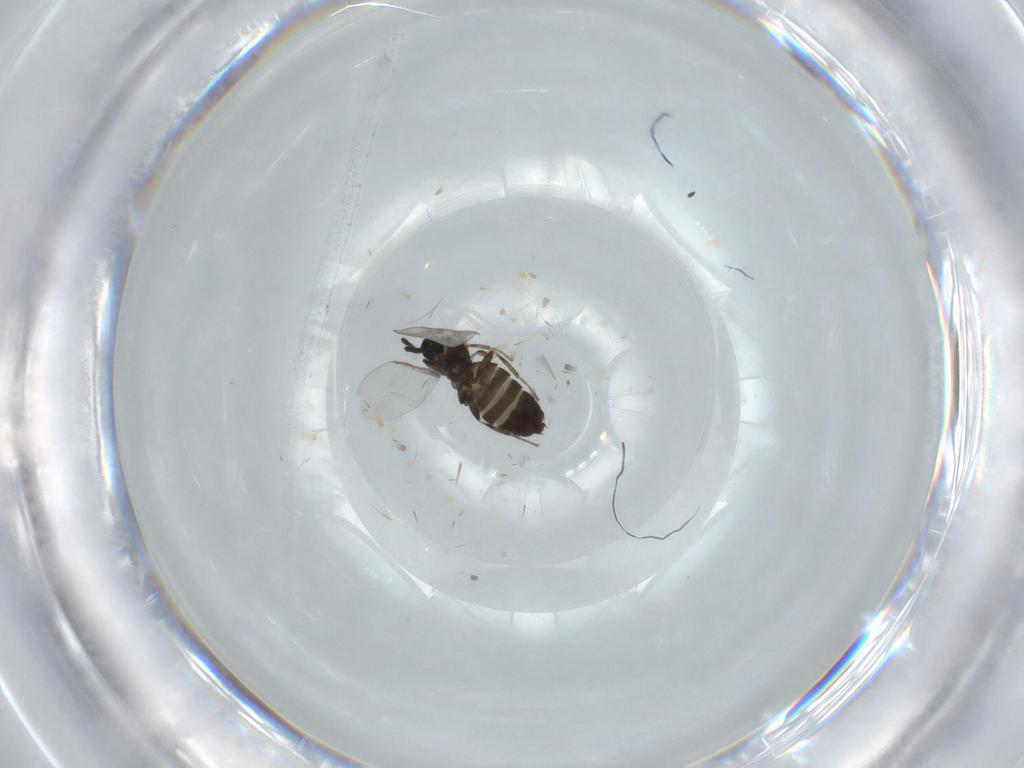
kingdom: Animalia
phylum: Arthropoda
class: Insecta
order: Diptera
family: Scatopsidae
